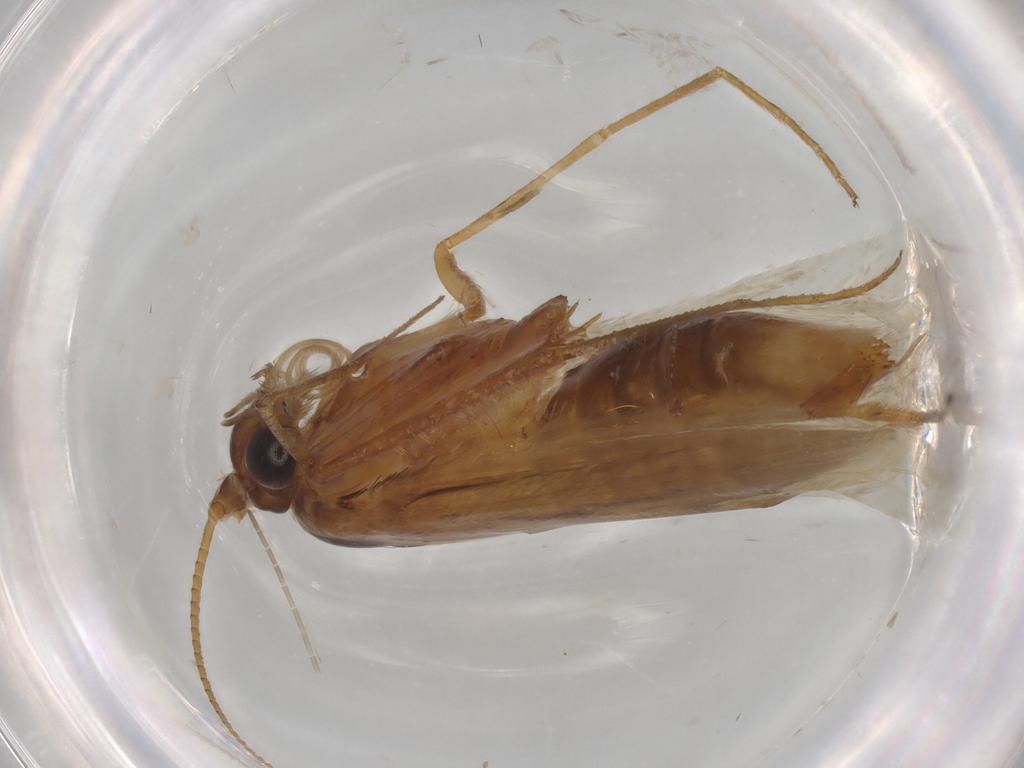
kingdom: Animalia
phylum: Arthropoda
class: Insecta
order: Lepidoptera
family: Adelidae
